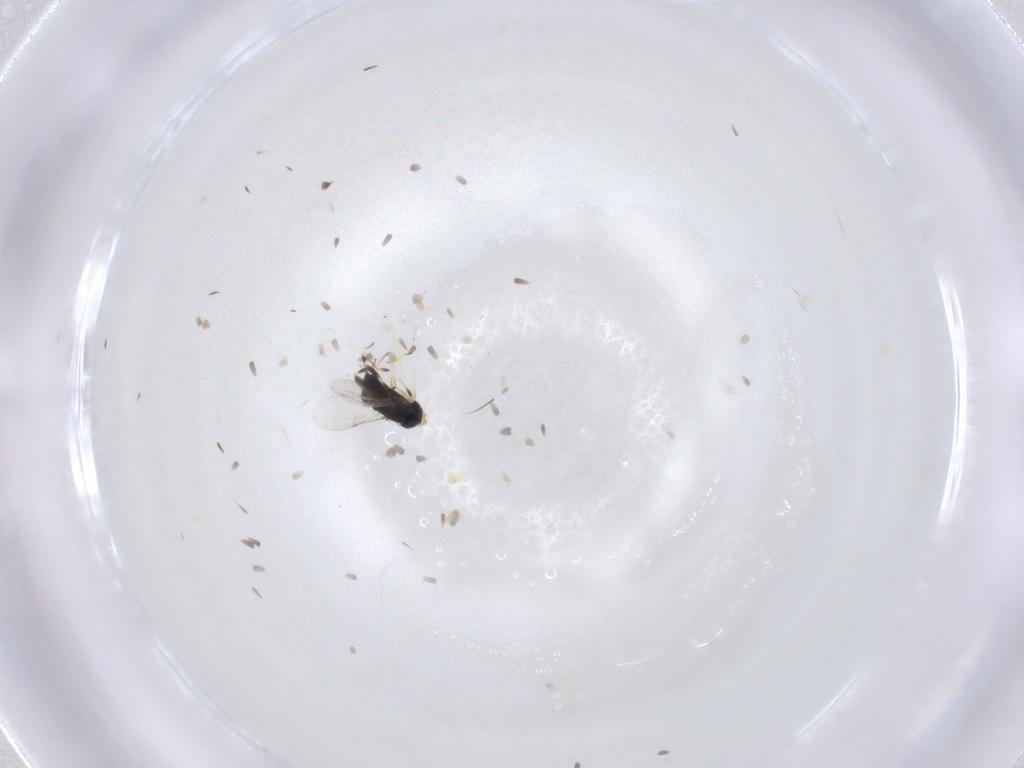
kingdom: Animalia
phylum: Arthropoda
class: Insecta
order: Hymenoptera
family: Encyrtidae
